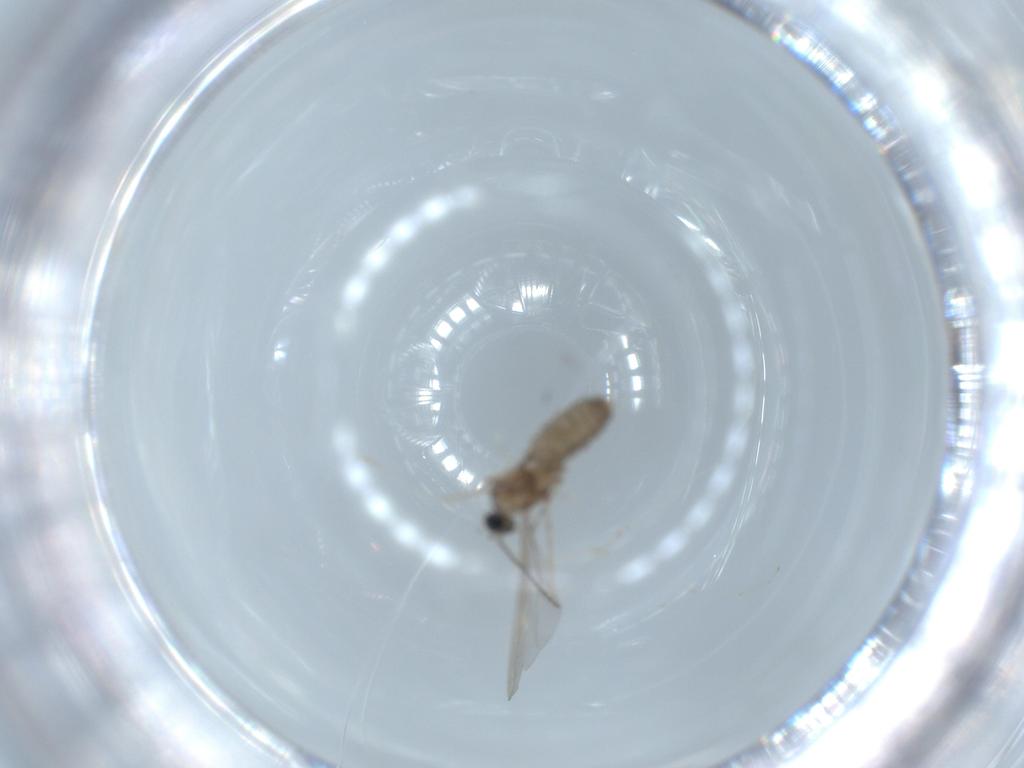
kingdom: Animalia
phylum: Arthropoda
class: Insecta
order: Diptera
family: Cecidomyiidae
